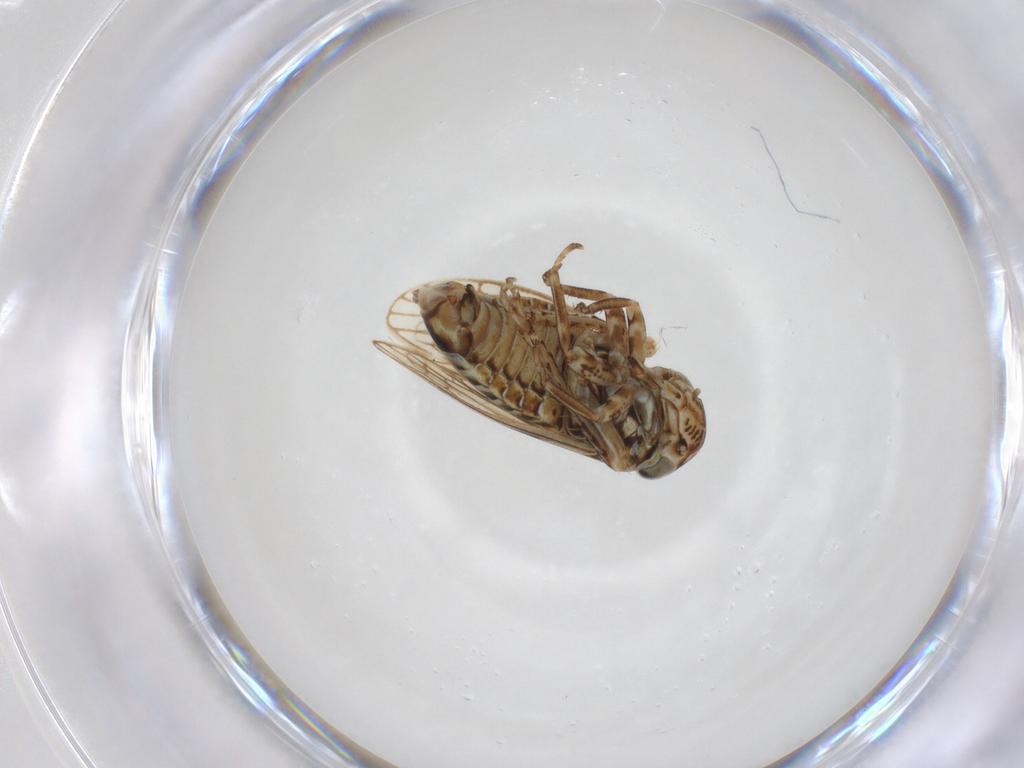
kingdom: Animalia
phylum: Arthropoda
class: Insecta
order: Hemiptera
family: Cicadellidae
